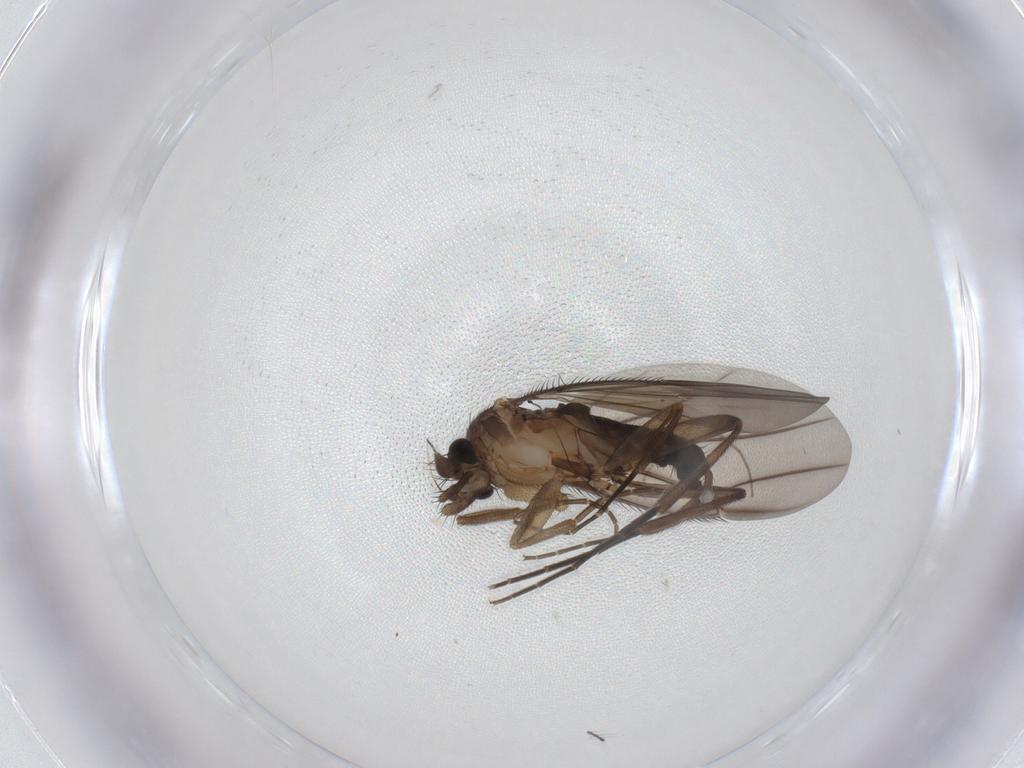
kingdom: Animalia
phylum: Arthropoda
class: Insecta
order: Diptera
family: Phoridae
